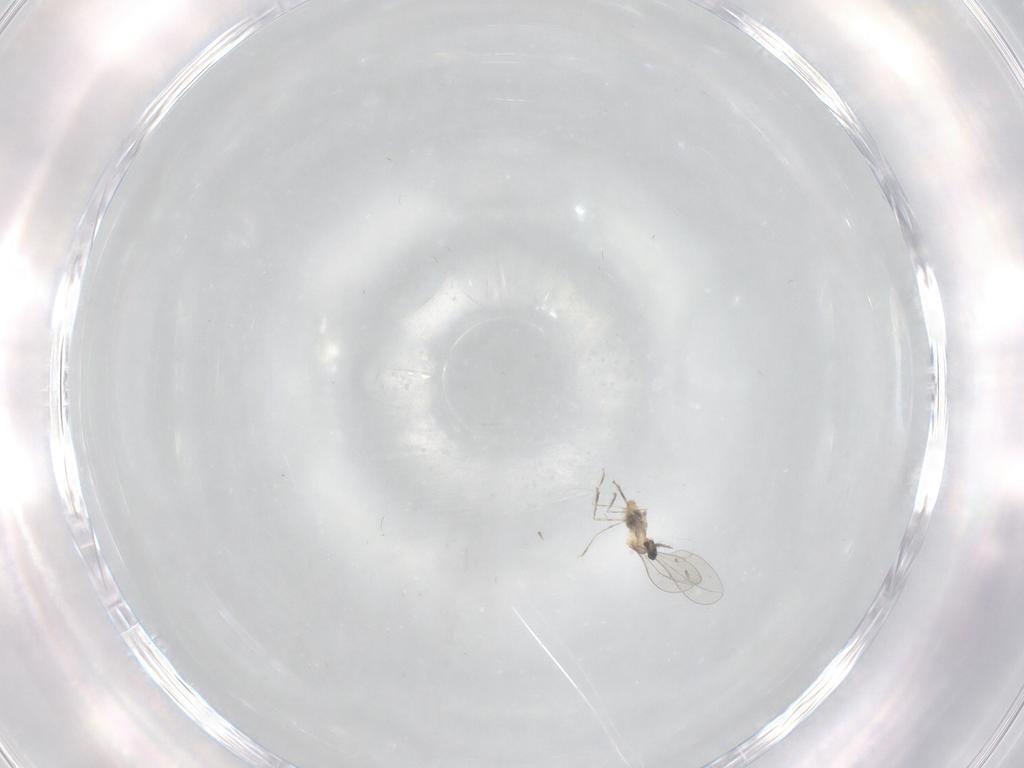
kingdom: Animalia
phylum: Arthropoda
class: Insecta
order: Diptera
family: Cecidomyiidae
